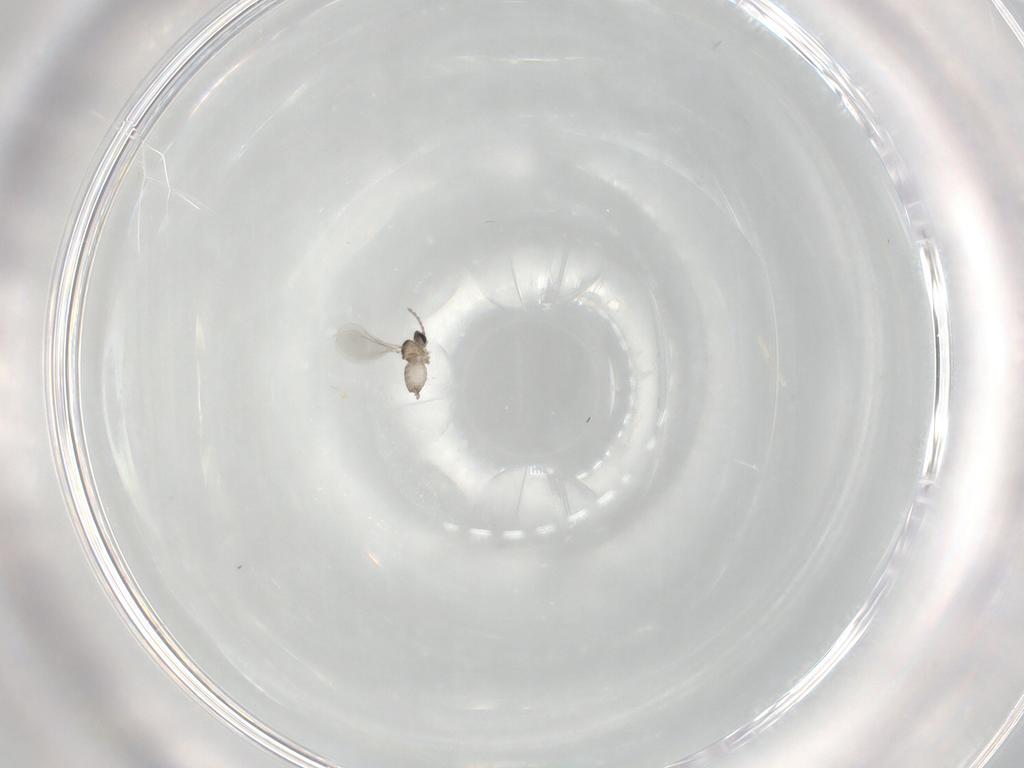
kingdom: Animalia
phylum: Arthropoda
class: Insecta
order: Diptera
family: Cecidomyiidae
